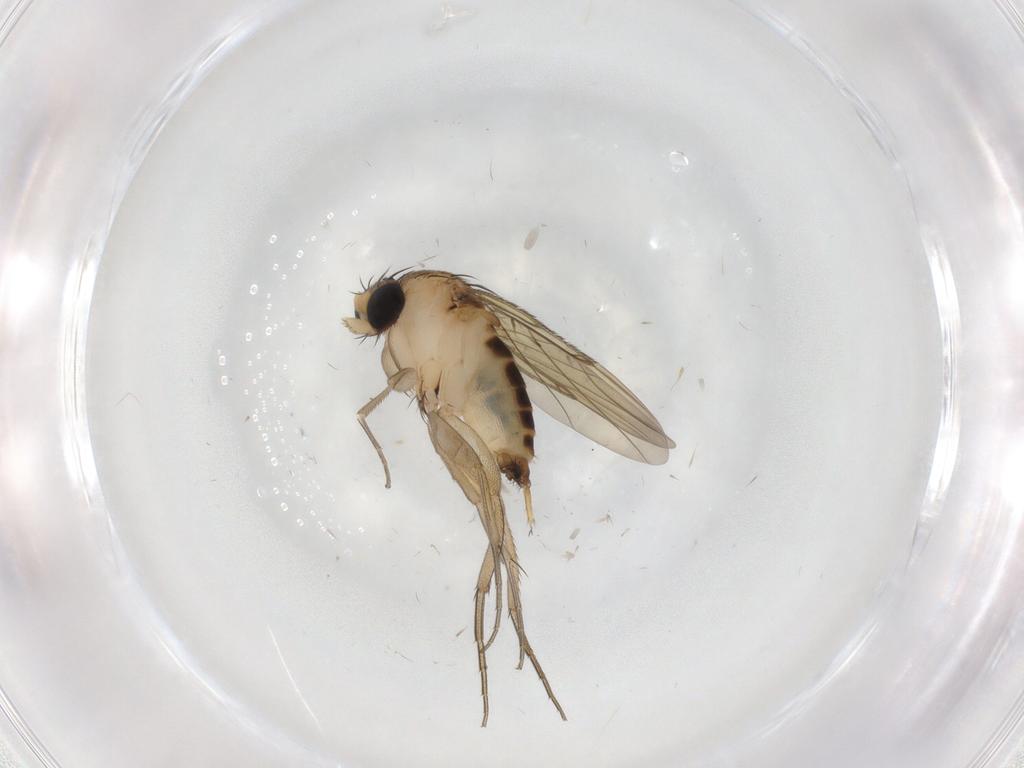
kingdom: Animalia
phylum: Arthropoda
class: Insecta
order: Diptera
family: Phoridae
